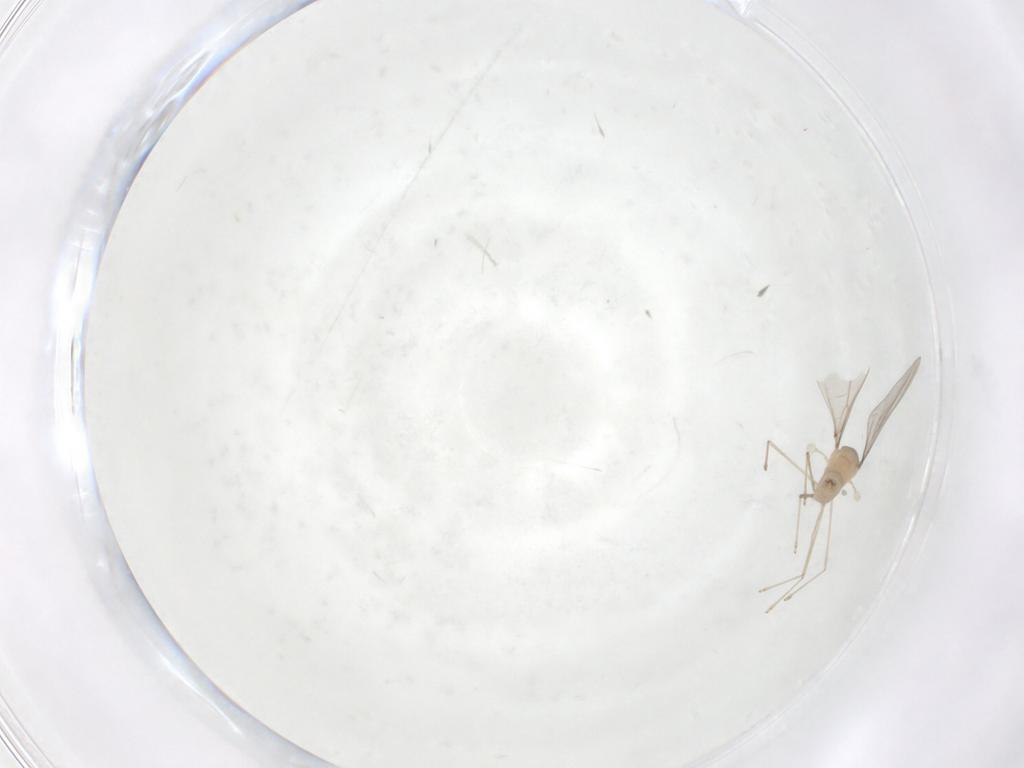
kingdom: Animalia
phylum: Arthropoda
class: Insecta
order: Diptera
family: Cecidomyiidae
